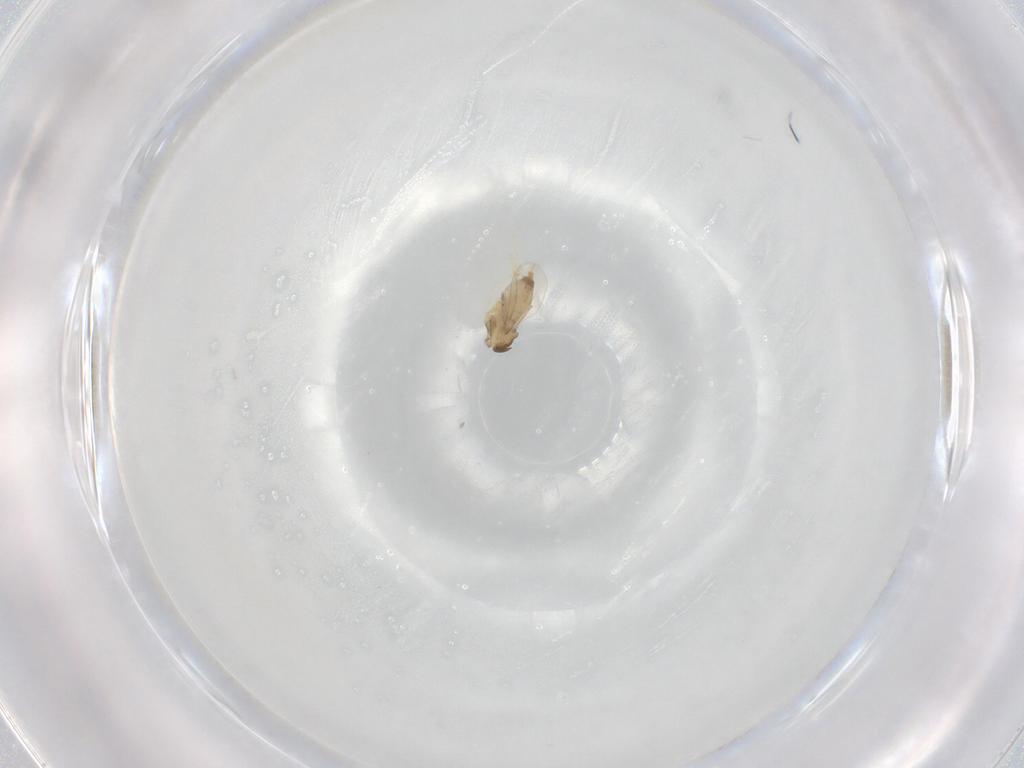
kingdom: Animalia
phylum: Arthropoda
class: Insecta
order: Diptera
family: Cecidomyiidae
